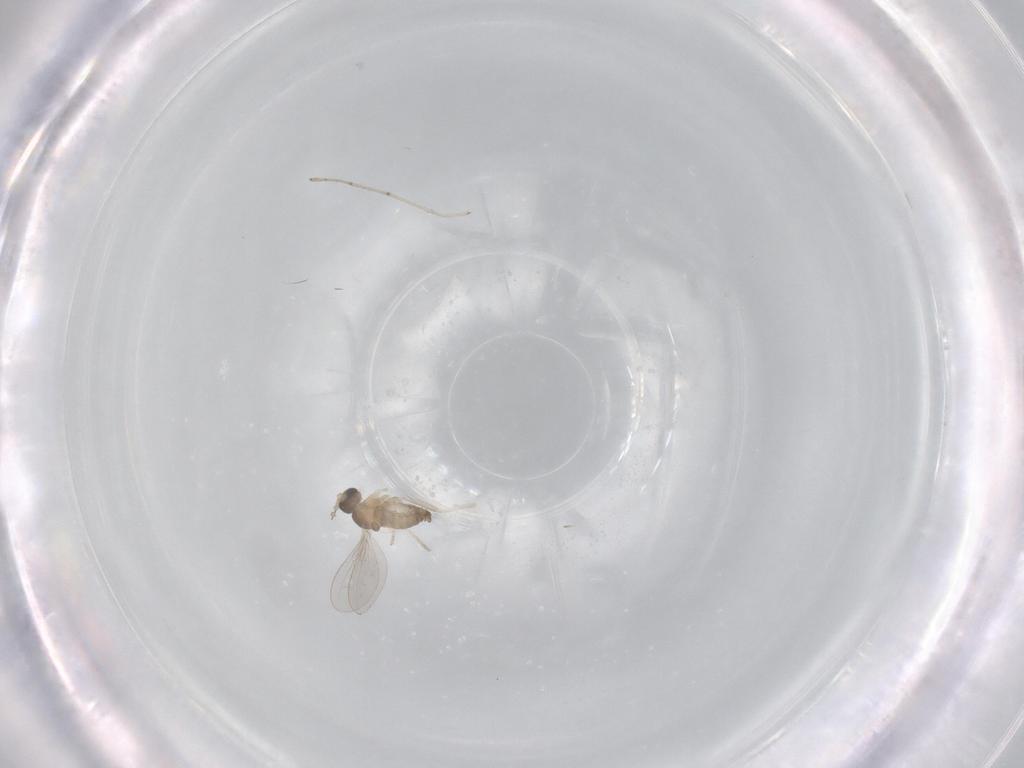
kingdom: Animalia
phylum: Arthropoda
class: Insecta
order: Diptera
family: Cecidomyiidae
